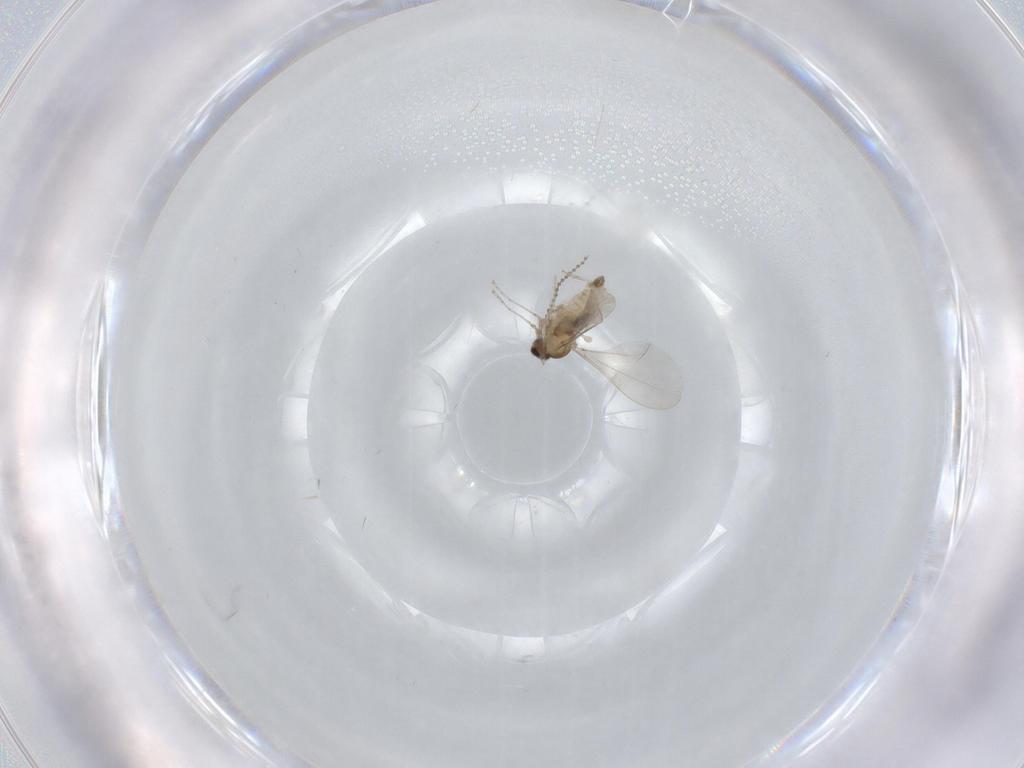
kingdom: Animalia
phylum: Arthropoda
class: Insecta
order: Diptera
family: Cecidomyiidae
